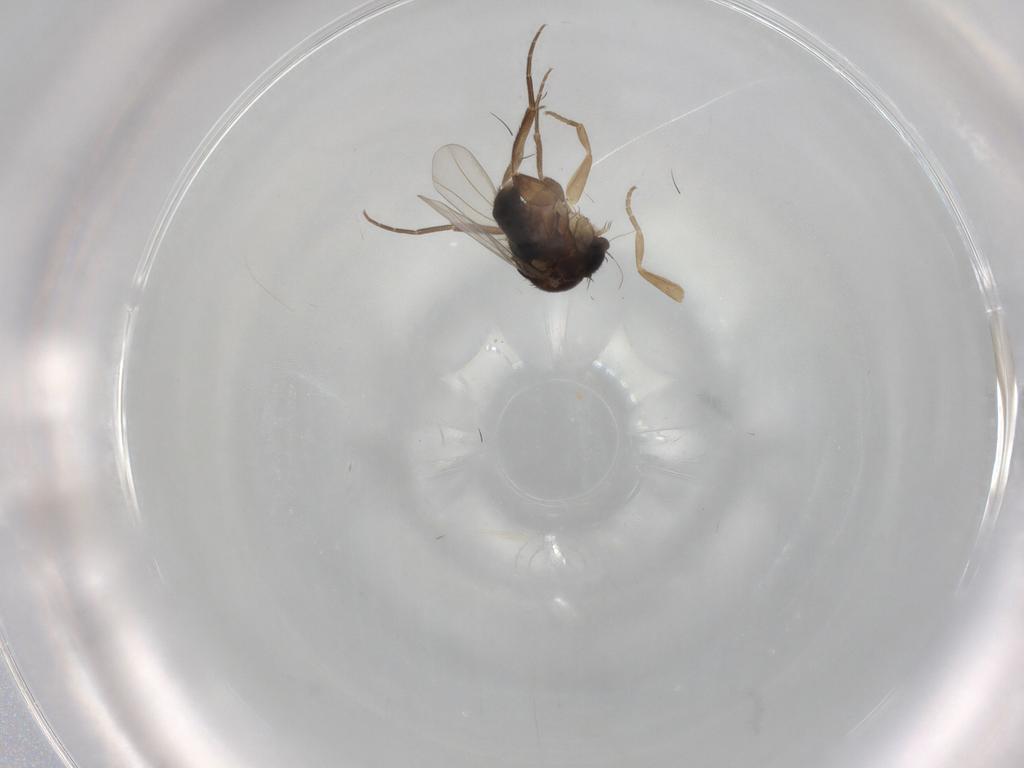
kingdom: Animalia
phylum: Arthropoda
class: Insecta
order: Diptera
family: Phoridae
